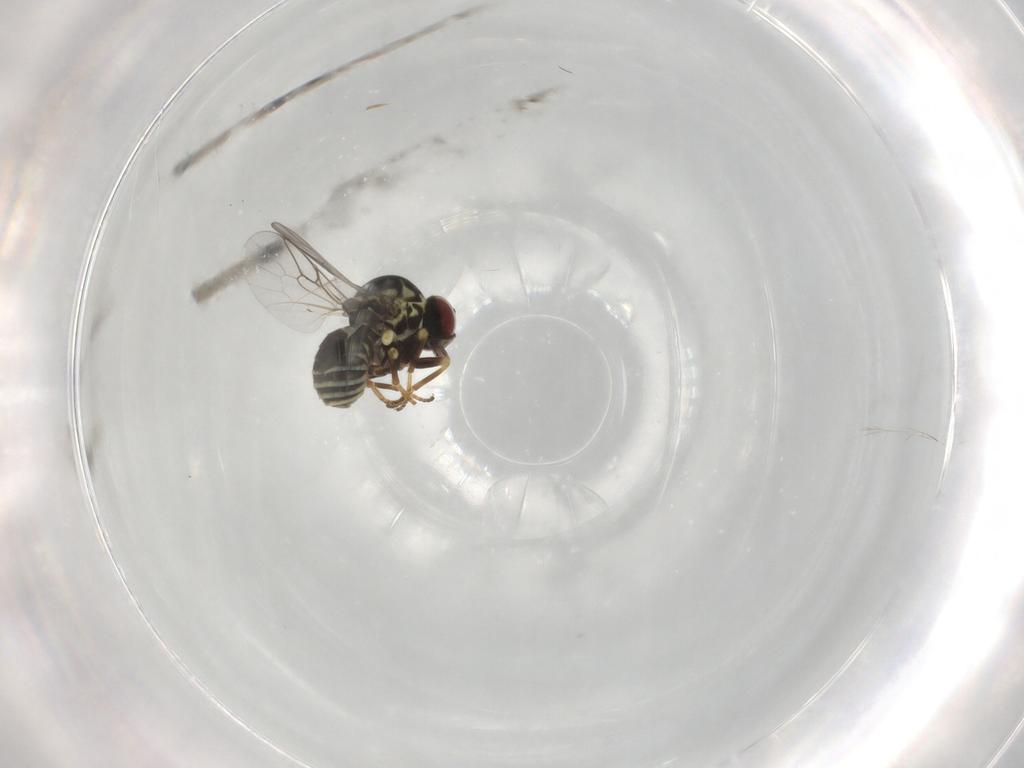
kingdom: Animalia
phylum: Arthropoda
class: Insecta
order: Diptera
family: Mythicomyiidae
